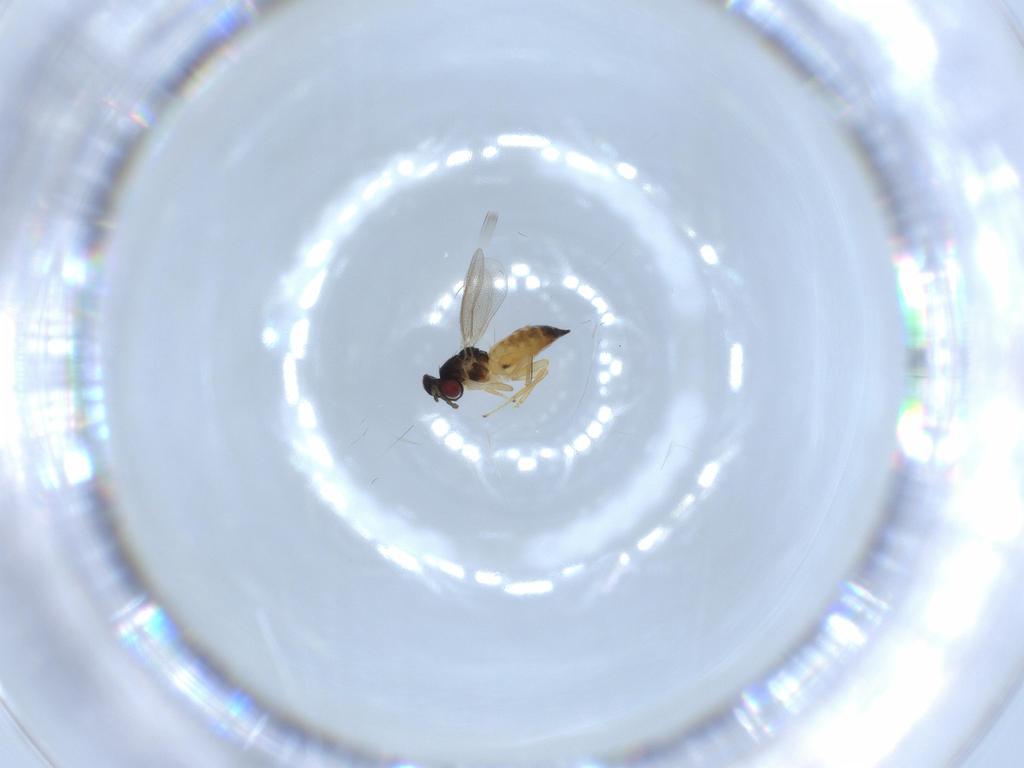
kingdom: Animalia
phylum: Arthropoda
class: Insecta
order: Hymenoptera
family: Eulophidae
